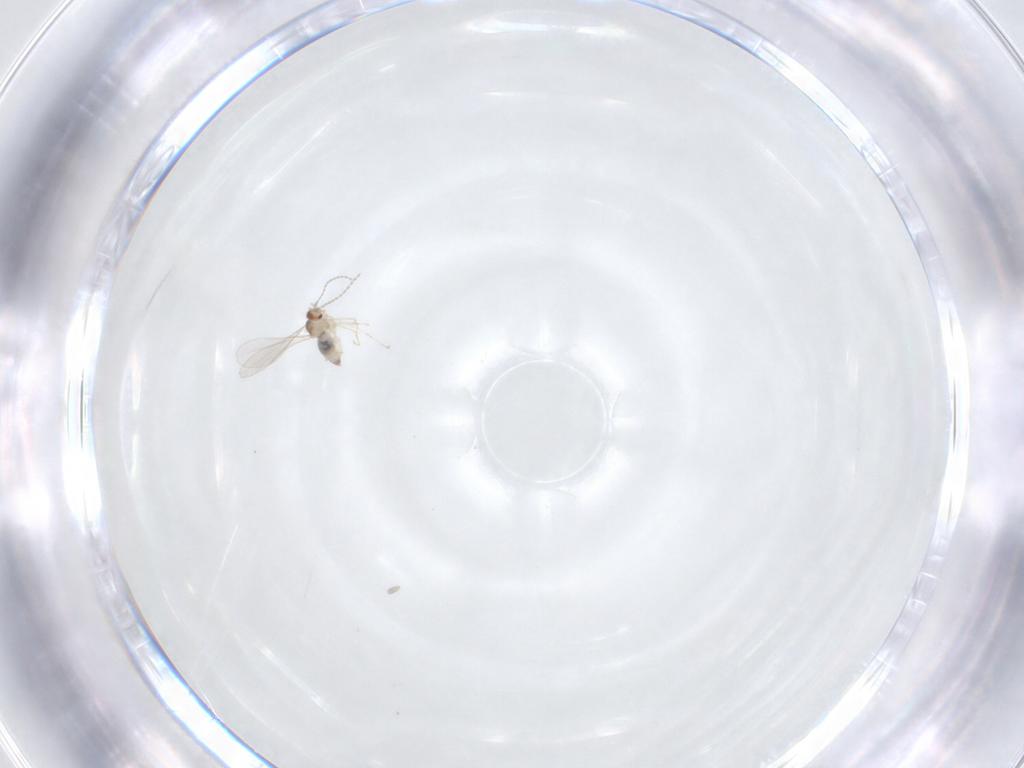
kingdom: Animalia
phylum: Arthropoda
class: Insecta
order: Diptera
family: Cecidomyiidae
